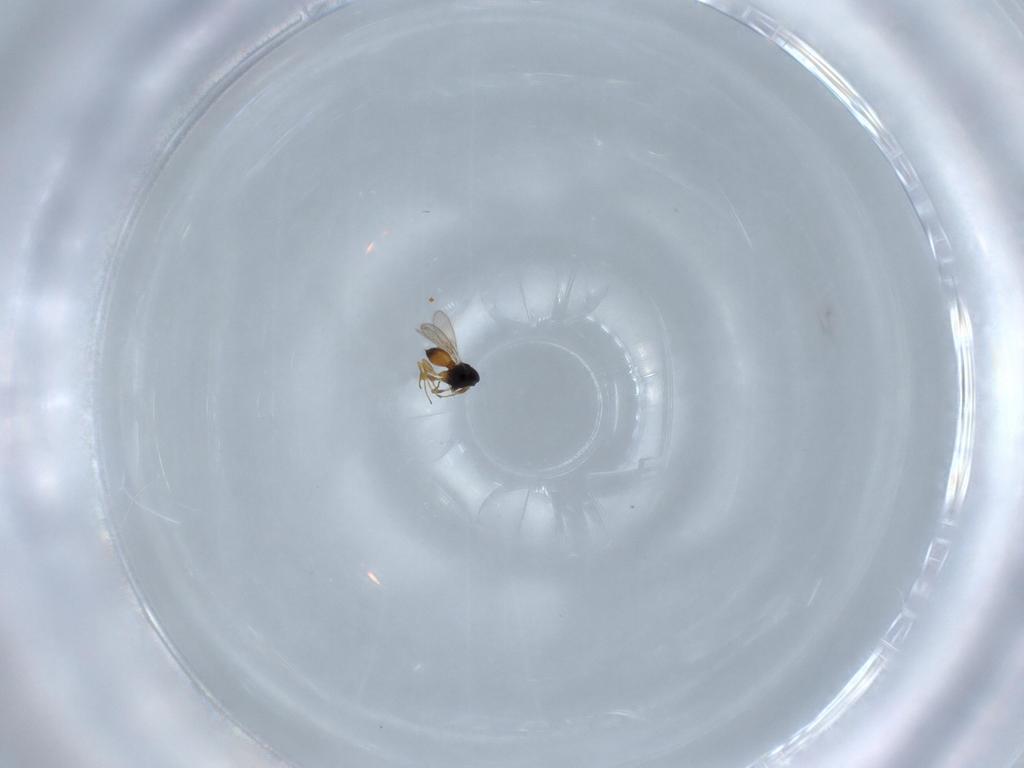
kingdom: Animalia
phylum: Arthropoda
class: Insecta
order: Hymenoptera
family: Scelionidae
